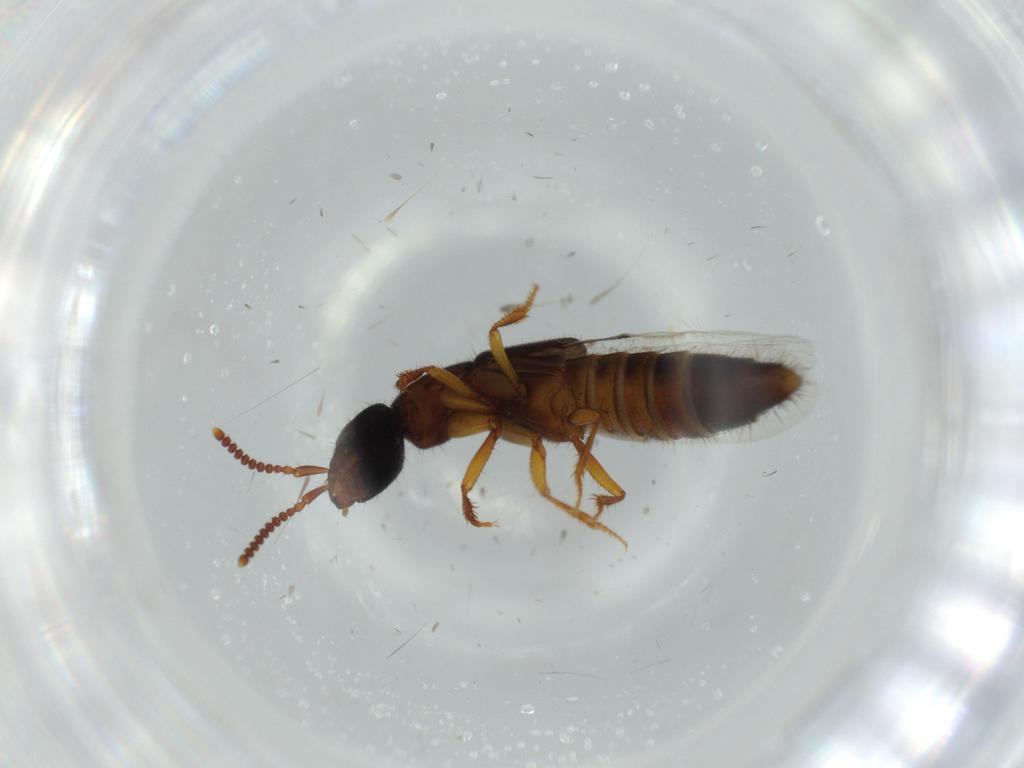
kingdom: Animalia
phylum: Arthropoda
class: Insecta
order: Coleoptera
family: Staphylinidae
